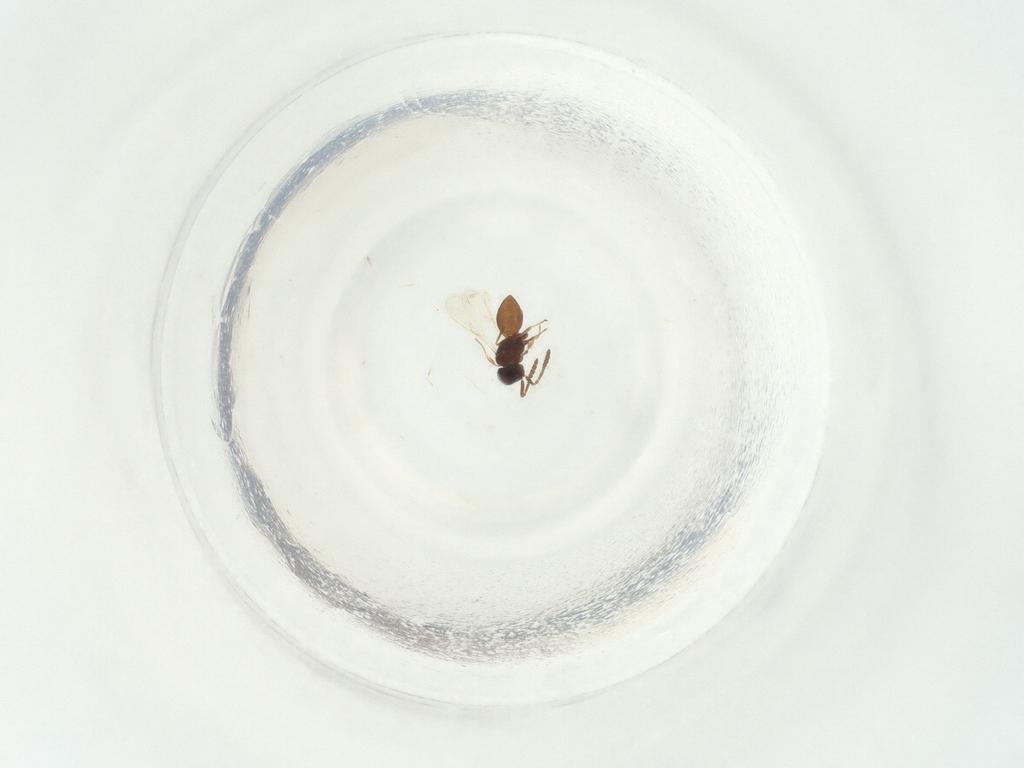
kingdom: Animalia
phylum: Arthropoda
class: Insecta
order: Hymenoptera
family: Scelionidae
